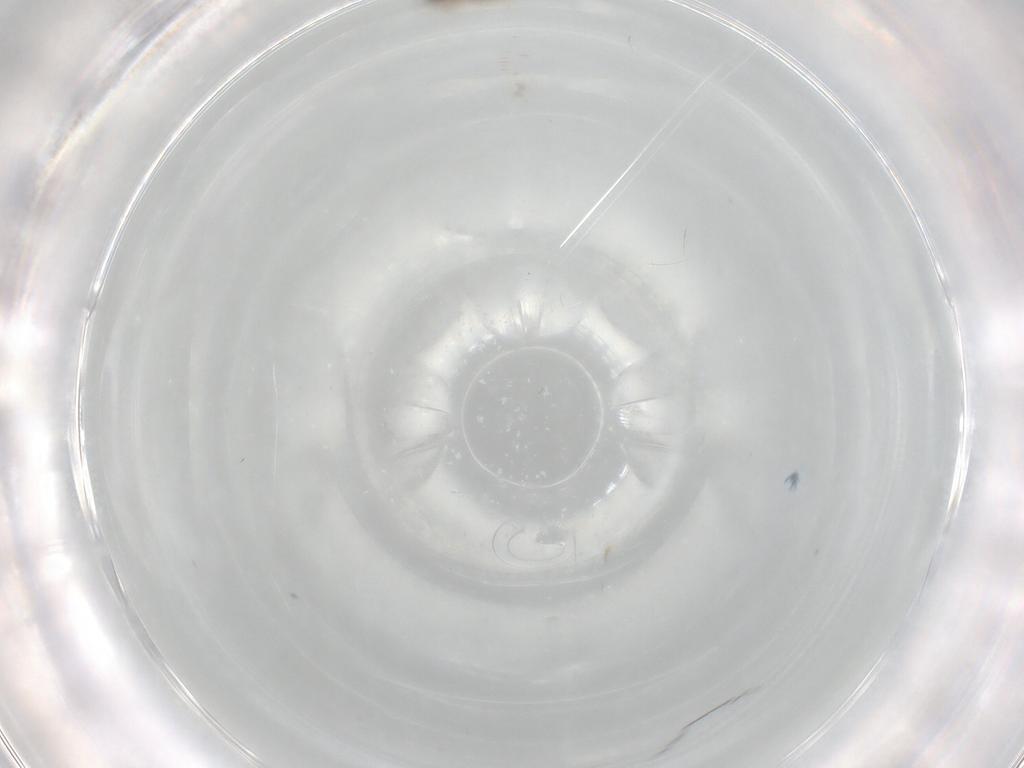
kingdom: Animalia
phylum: Arthropoda
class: Insecta
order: Diptera
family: Cecidomyiidae
